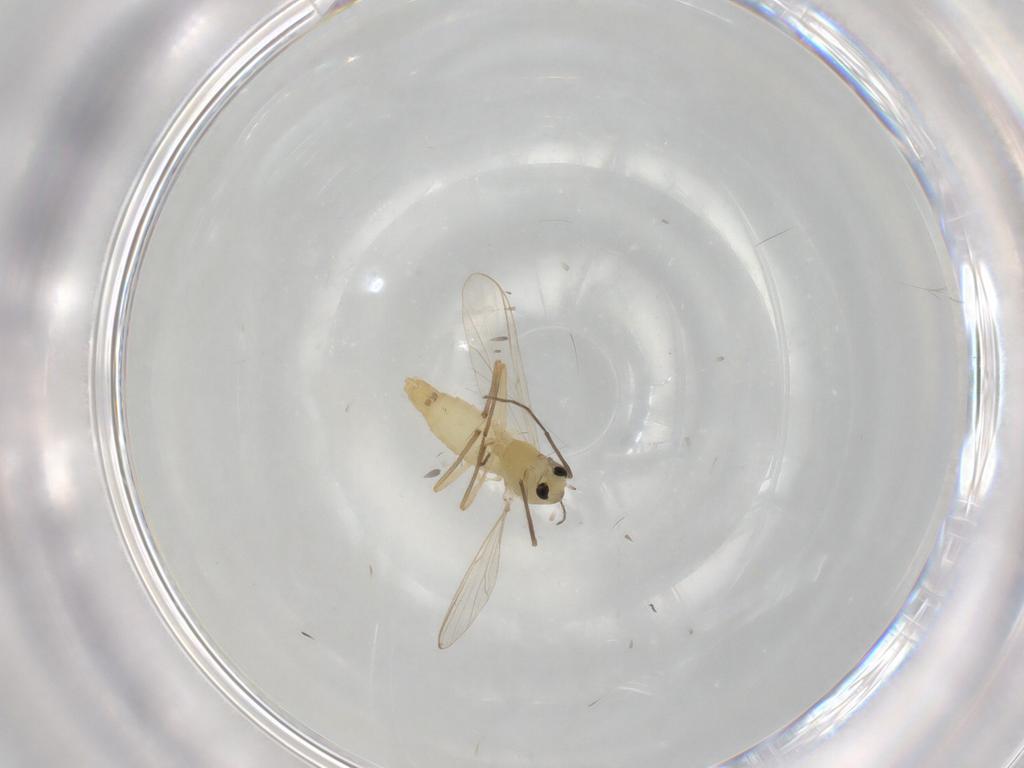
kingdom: Animalia
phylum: Arthropoda
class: Insecta
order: Diptera
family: Chironomidae
